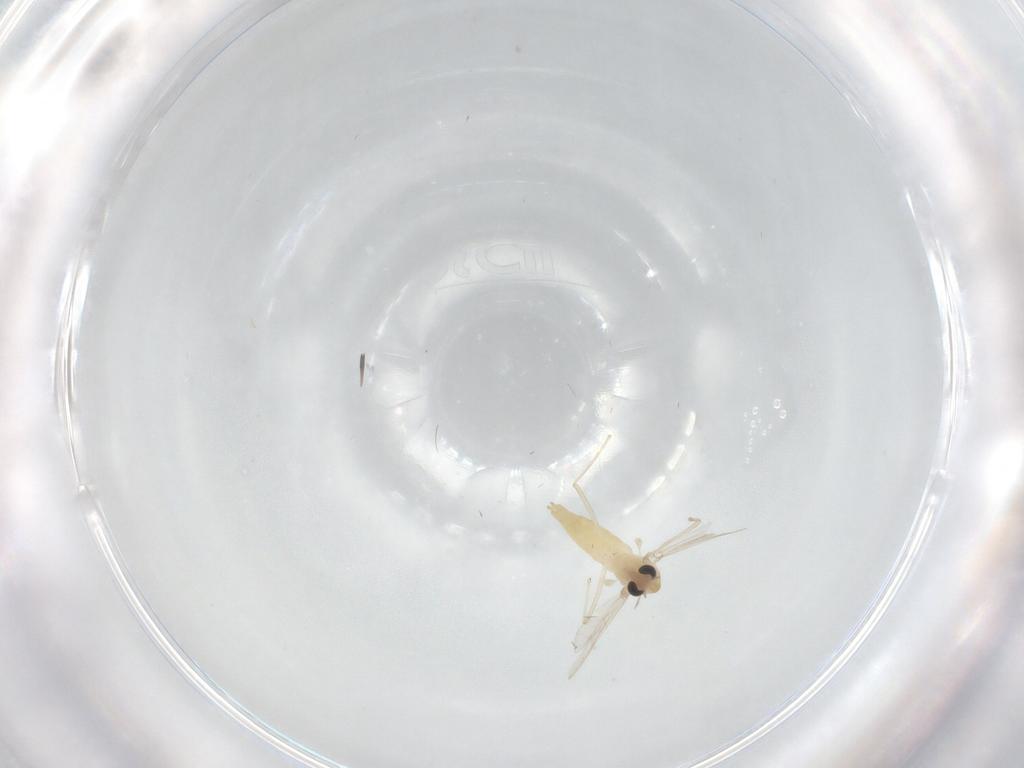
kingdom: Animalia
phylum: Arthropoda
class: Insecta
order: Diptera
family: Chironomidae
